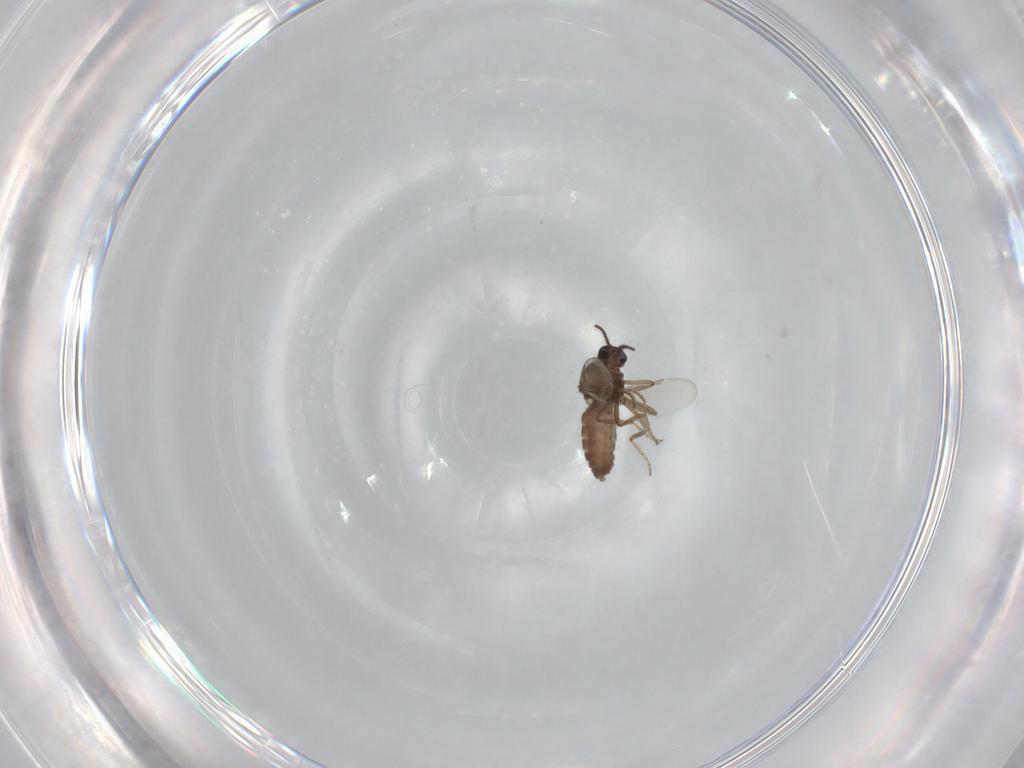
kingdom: Animalia
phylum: Arthropoda
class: Insecta
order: Diptera
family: Ceratopogonidae
